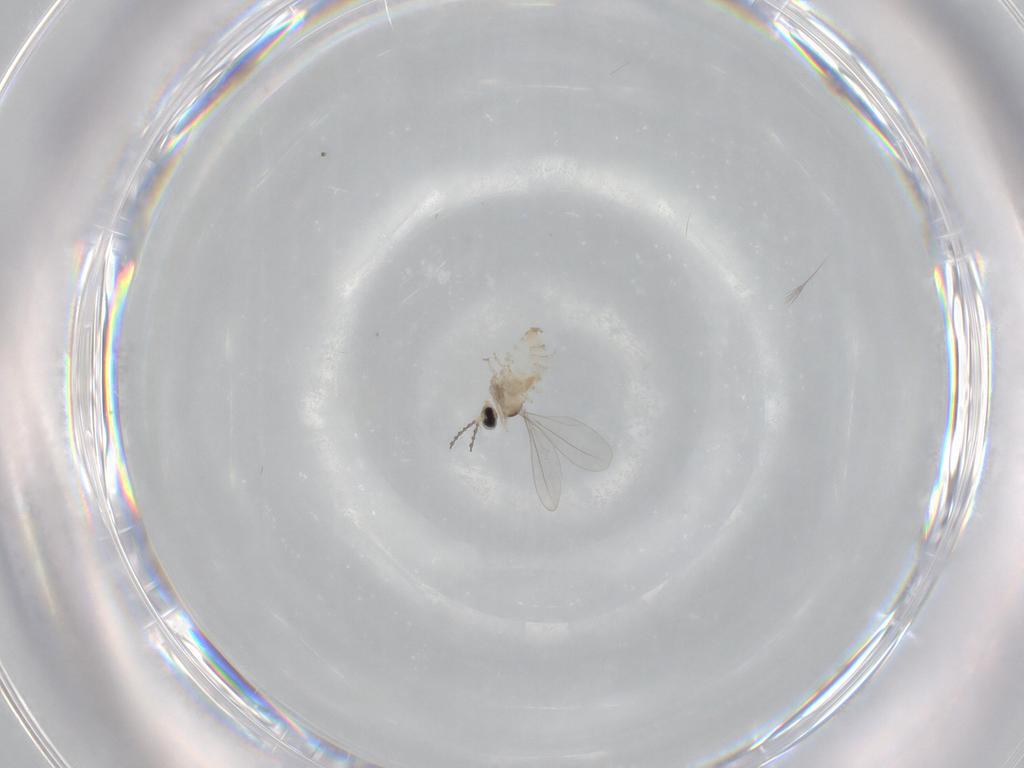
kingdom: Animalia
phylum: Arthropoda
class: Insecta
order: Diptera
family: Cecidomyiidae
